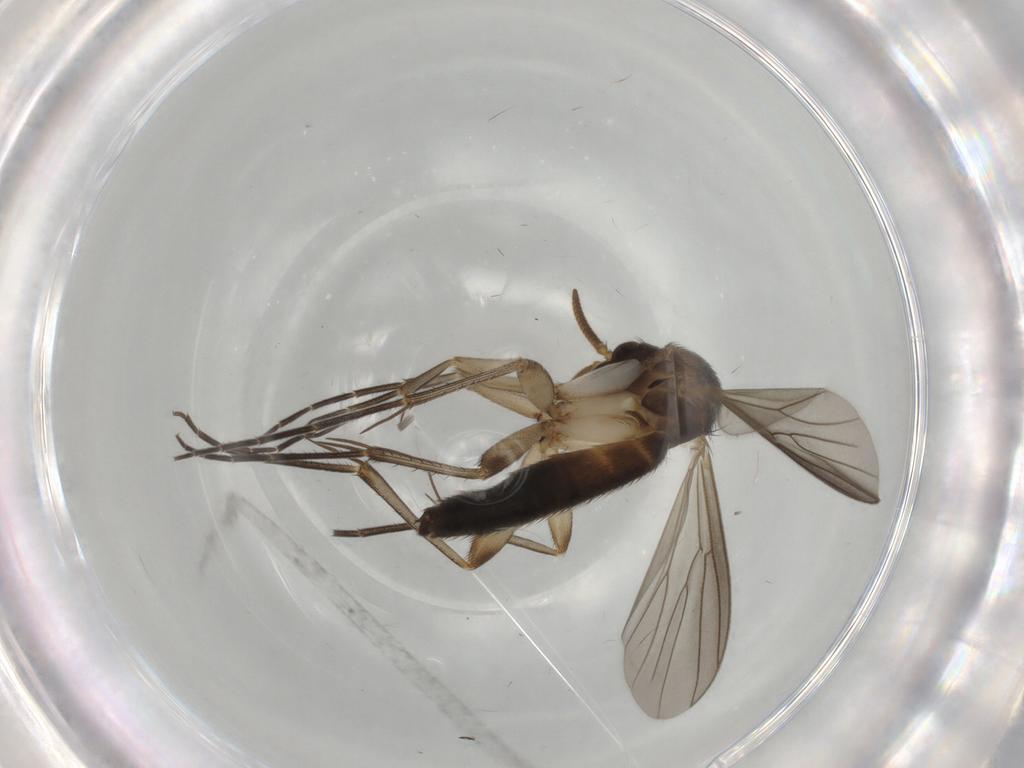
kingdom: Animalia
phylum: Arthropoda
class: Insecta
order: Diptera
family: Mycetophilidae
